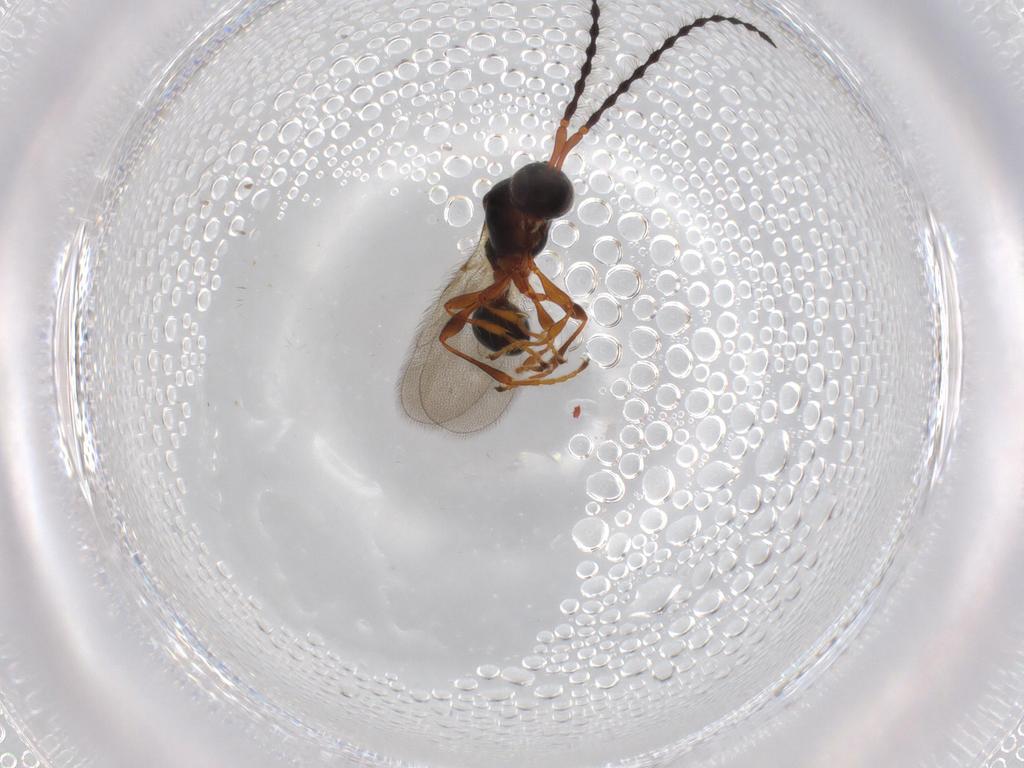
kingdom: Animalia
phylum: Arthropoda
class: Insecta
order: Hymenoptera
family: Diapriidae
